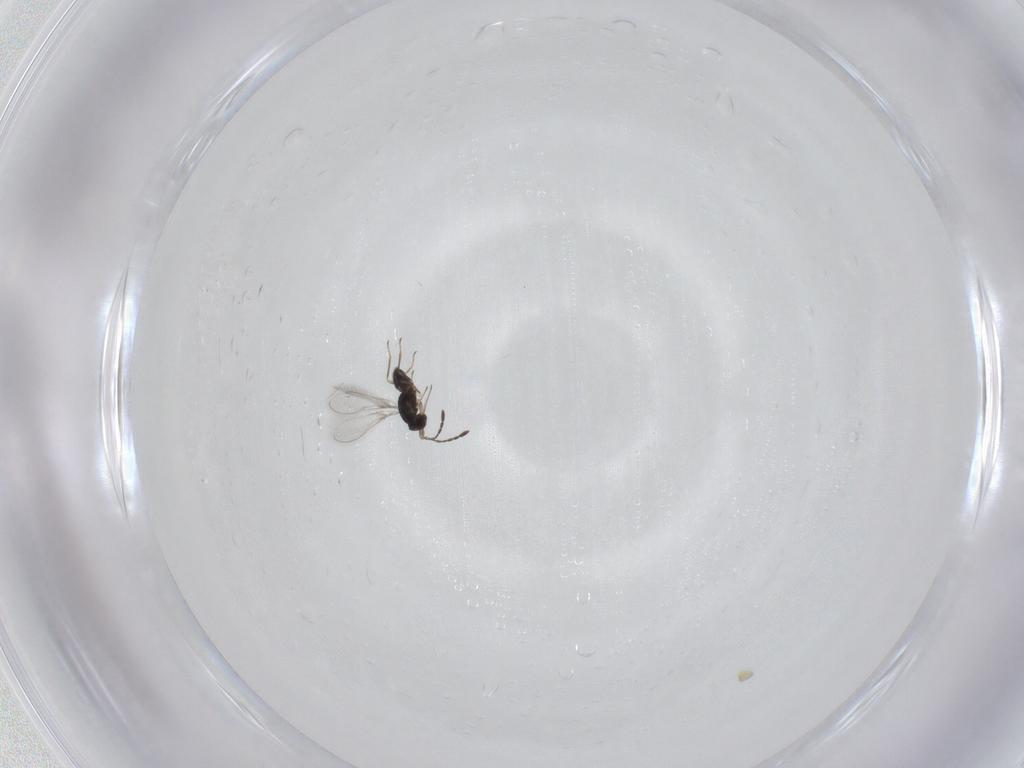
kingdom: Animalia
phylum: Arthropoda
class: Insecta
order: Hymenoptera
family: Mymaridae
